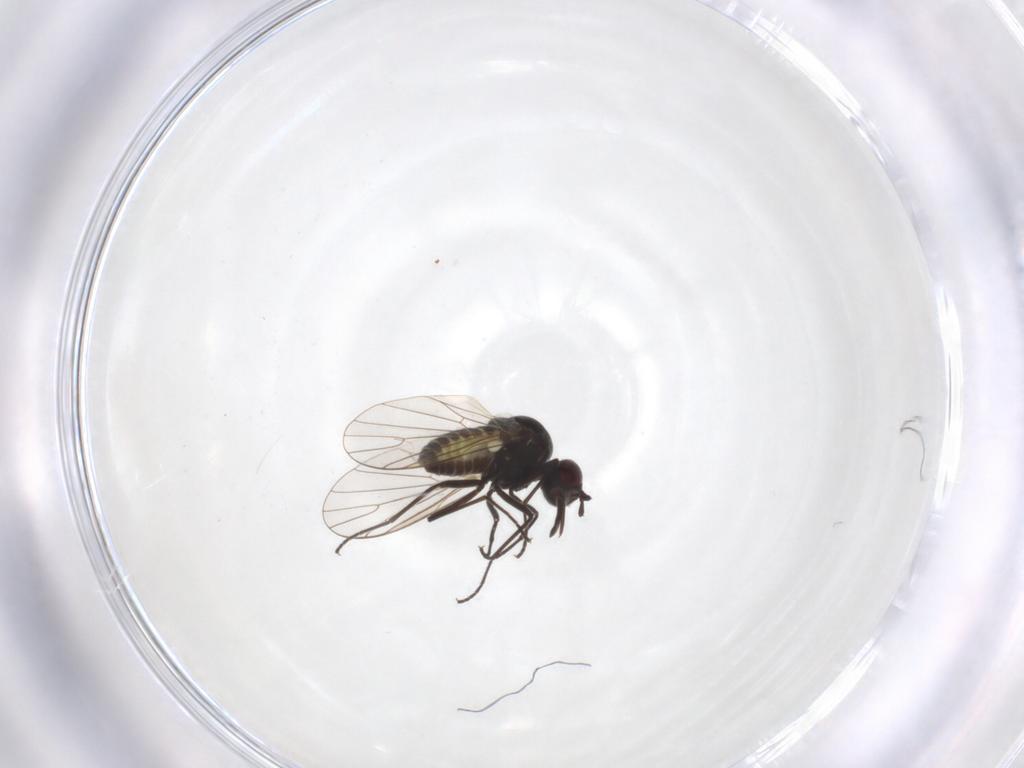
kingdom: Animalia
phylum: Arthropoda
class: Insecta
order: Diptera
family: Bombyliidae
